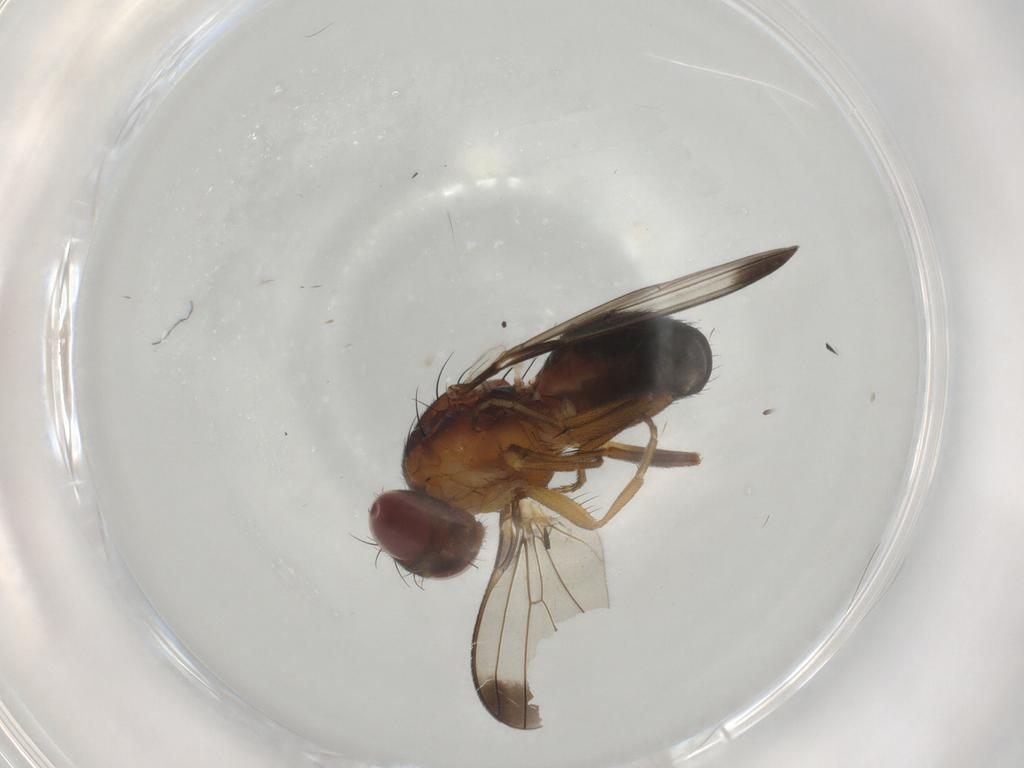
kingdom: Animalia
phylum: Arthropoda
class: Insecta
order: Diptera
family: Piophilidae
